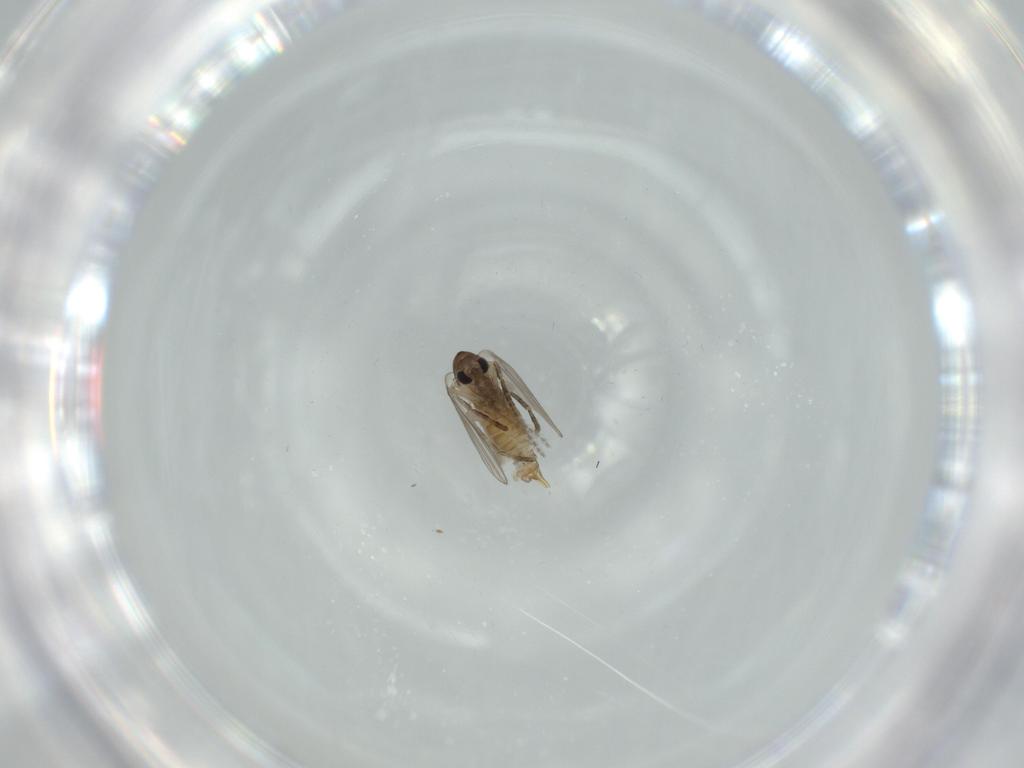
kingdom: Animalia
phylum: Arthropoda
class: Insecta
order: Diptera
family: Psychodidae
